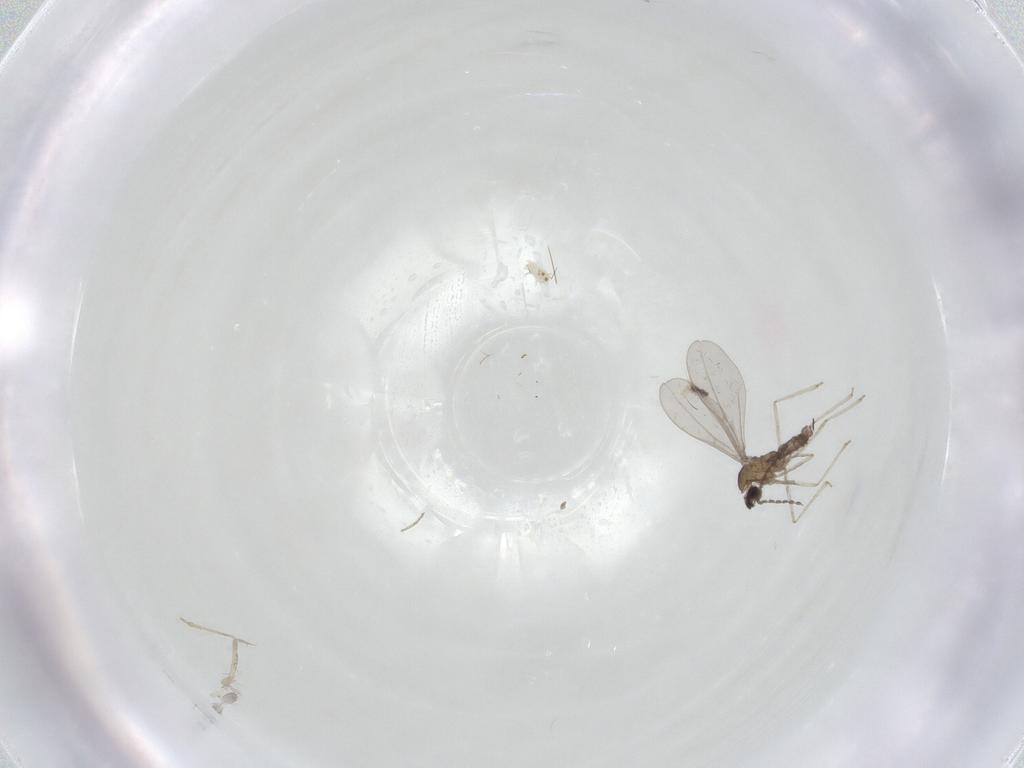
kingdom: Animalia
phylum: Arthropoda
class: Insecta
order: Diptera
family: Cecidomyiidae
